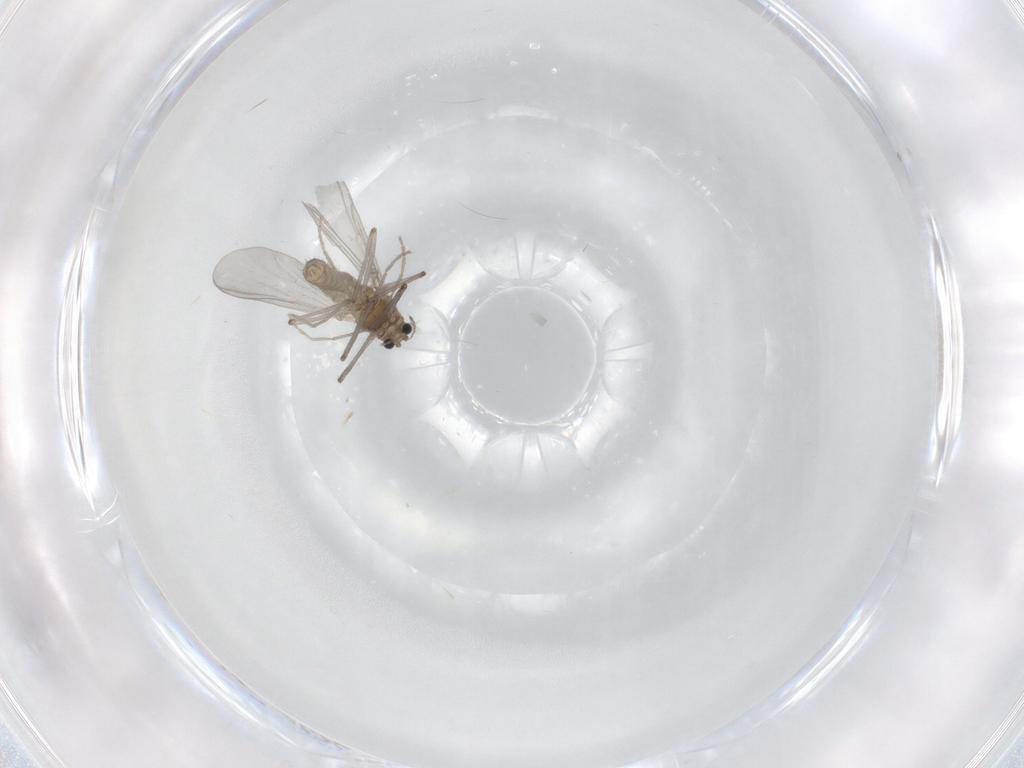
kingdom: Animalia
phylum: Arthropoda
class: Insecta
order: Diptera
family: Chironomidae
